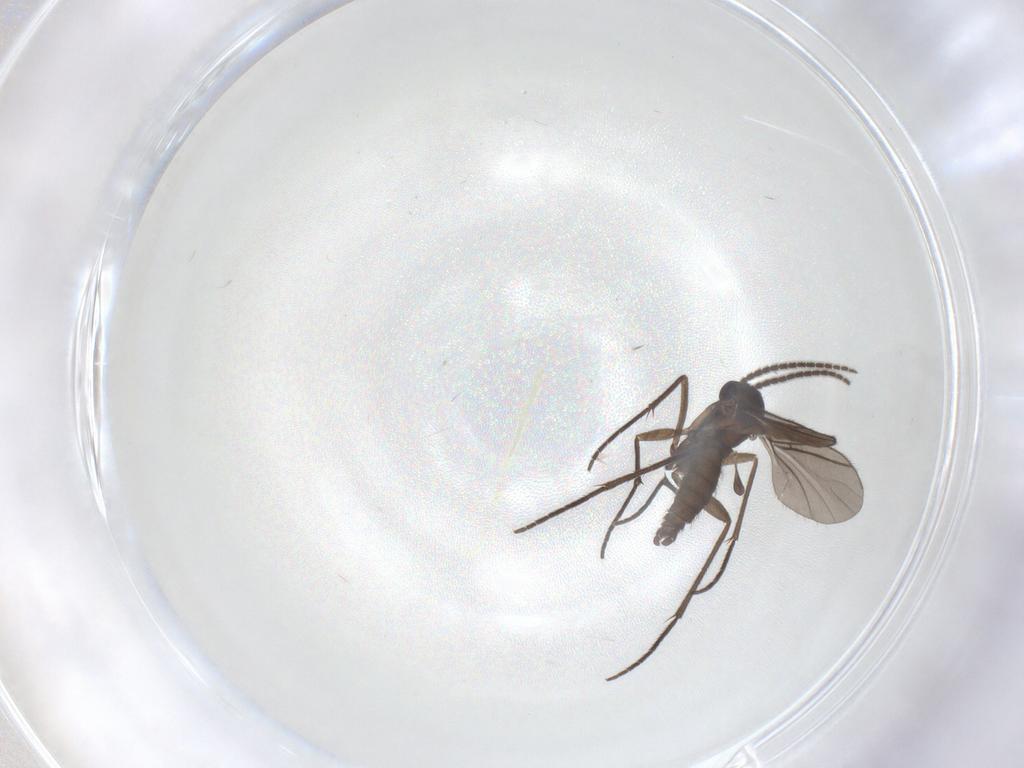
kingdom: Animalia
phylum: Arthropoda
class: Insecta
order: Diptera
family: Sciaridae
